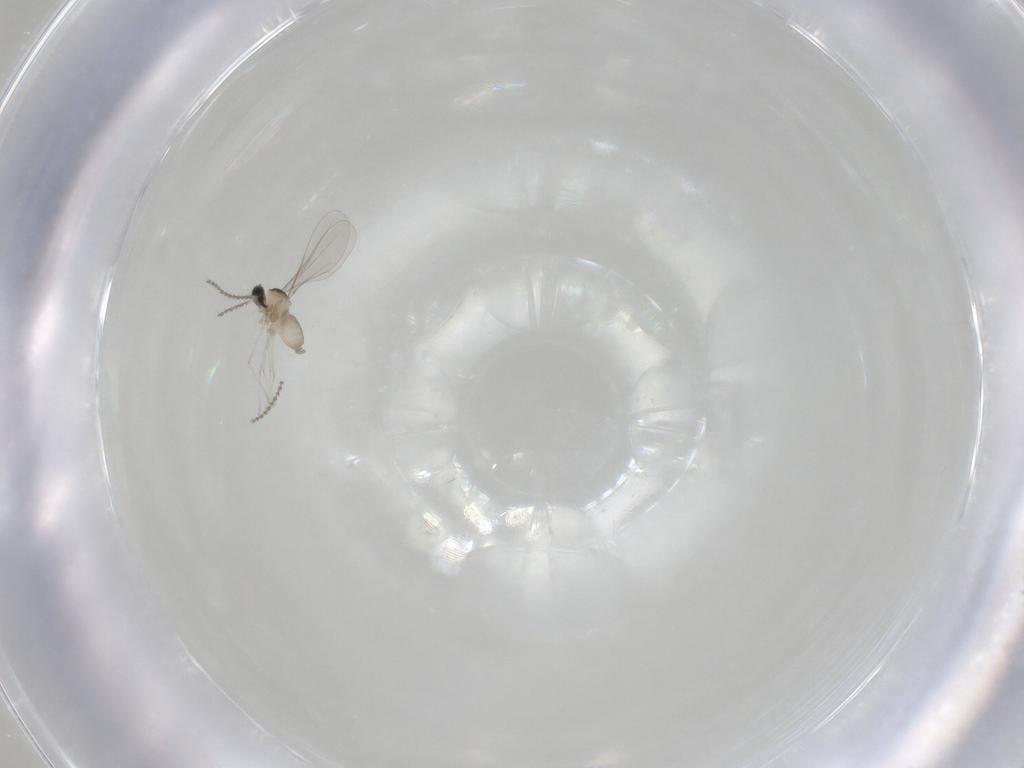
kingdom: Animalia
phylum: Arthropoda
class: Insecta
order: Diptera
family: Cecidomyiidae
